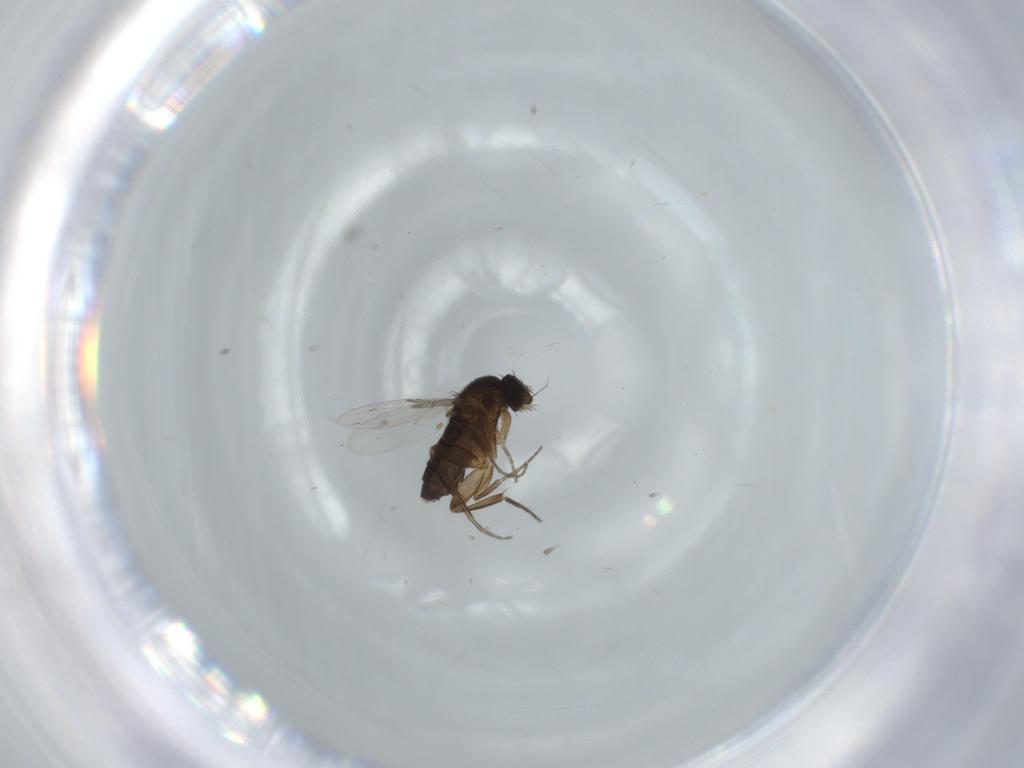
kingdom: Animalia
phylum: Arthropoda
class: Insecta
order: Diptera
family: Phoridae
